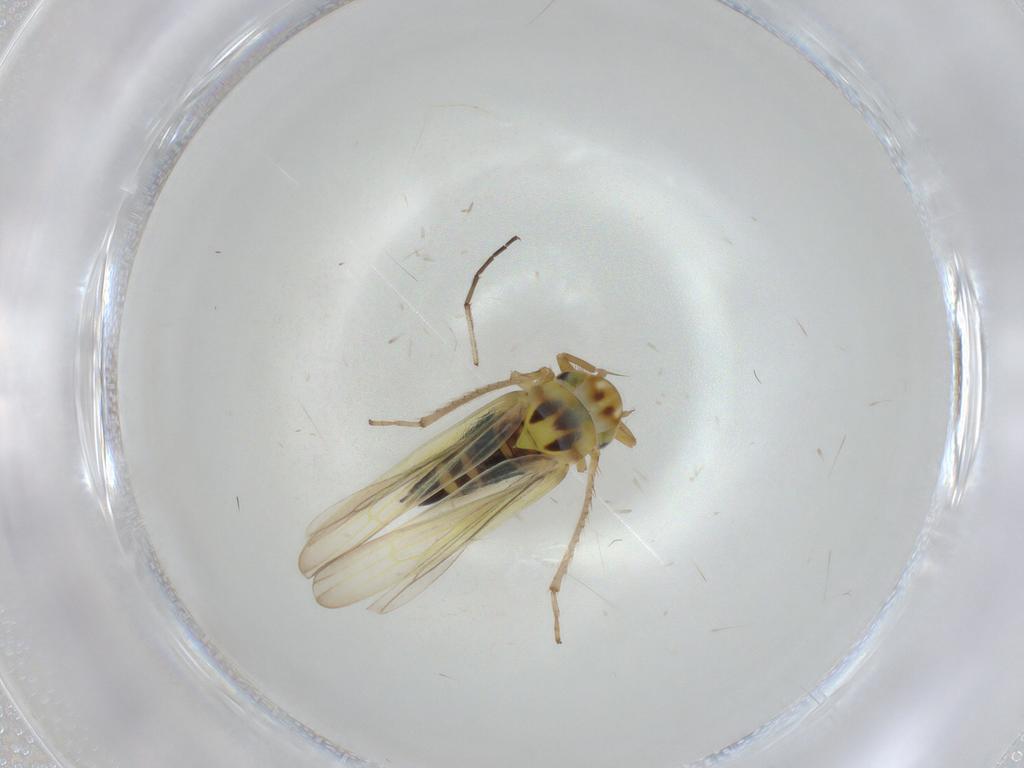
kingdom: Animalia
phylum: Arthropoda
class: Insecta
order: Hemiptera
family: Cicadellidae
